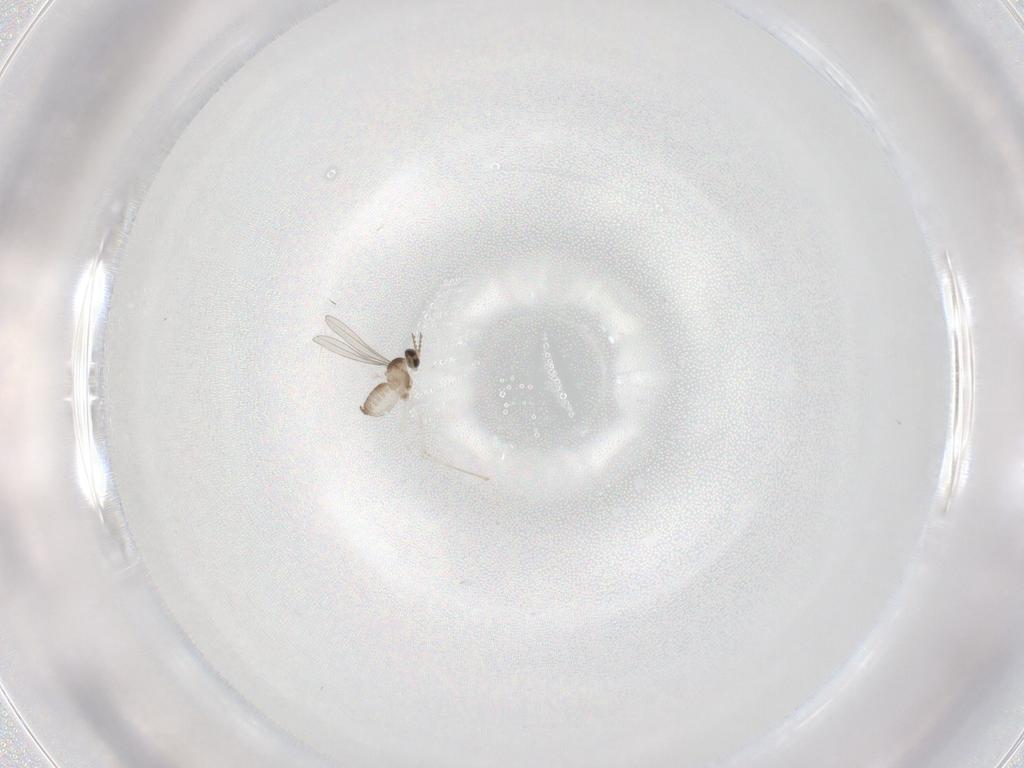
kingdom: Animalia
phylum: Arthropoda
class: Insecta
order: Diptera
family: Cecidomyiidae
